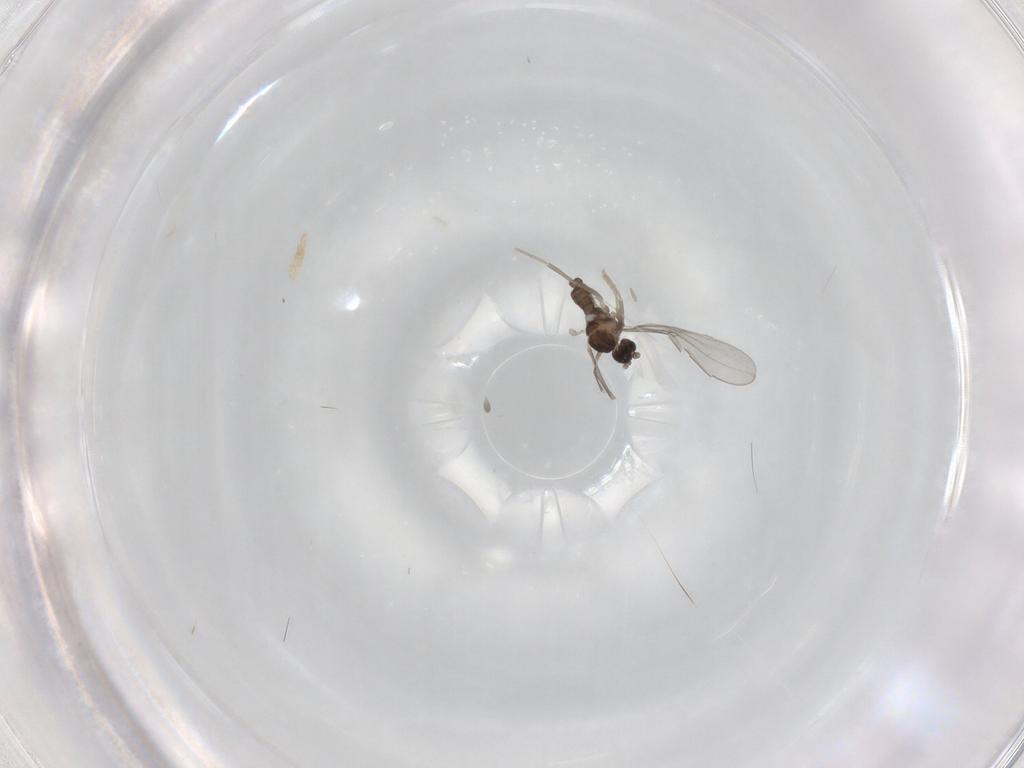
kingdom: Animalia
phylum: Arthropoda
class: Insecta
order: Diptera
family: Cecidomyiidae
